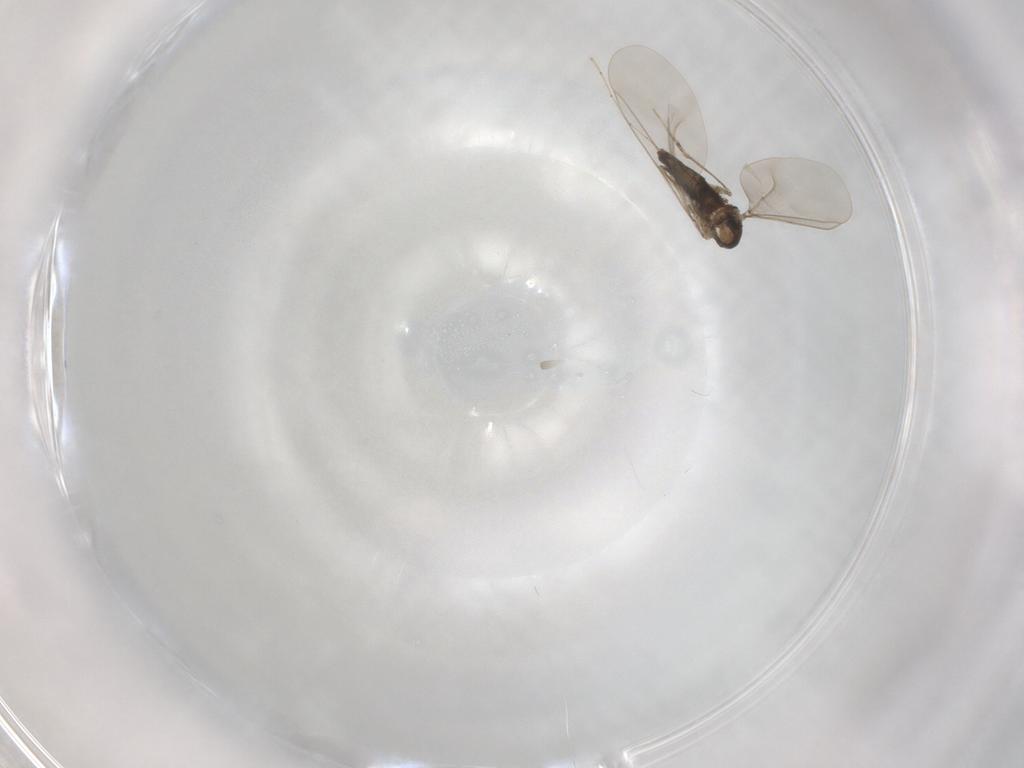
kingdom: Animalia
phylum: Arthropoda
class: Insecta
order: Diptera
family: Cecidomyiidae
